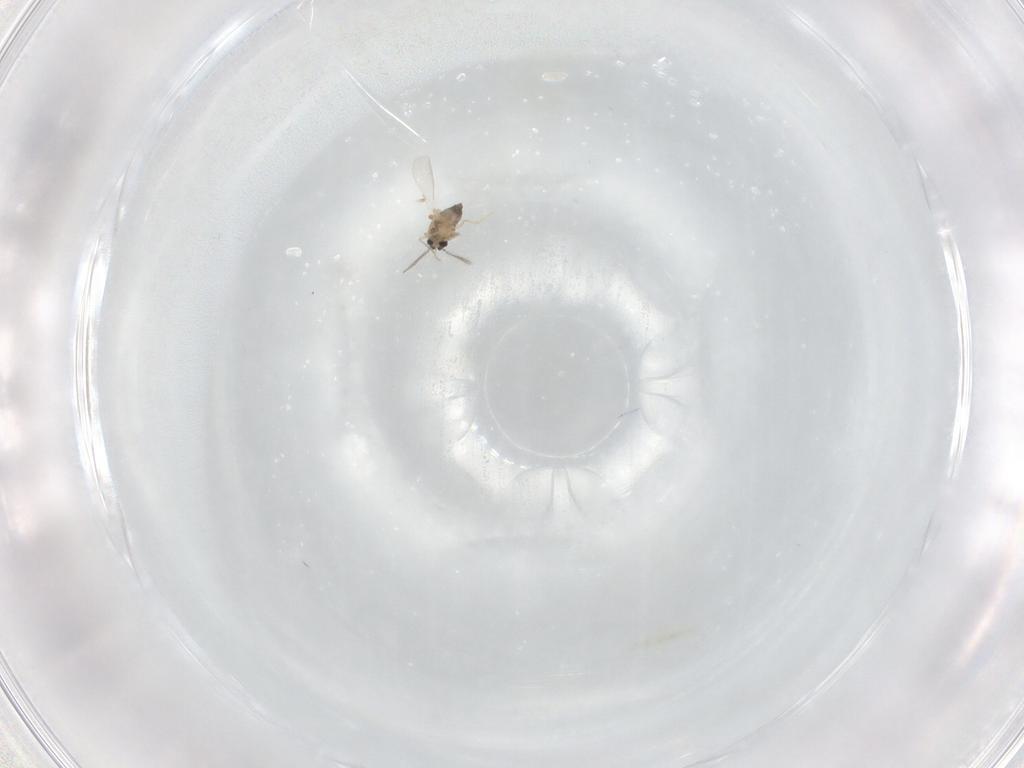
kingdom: Animalia
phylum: Arthropoda
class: Insecta
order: Diptera
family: Chironomidae
